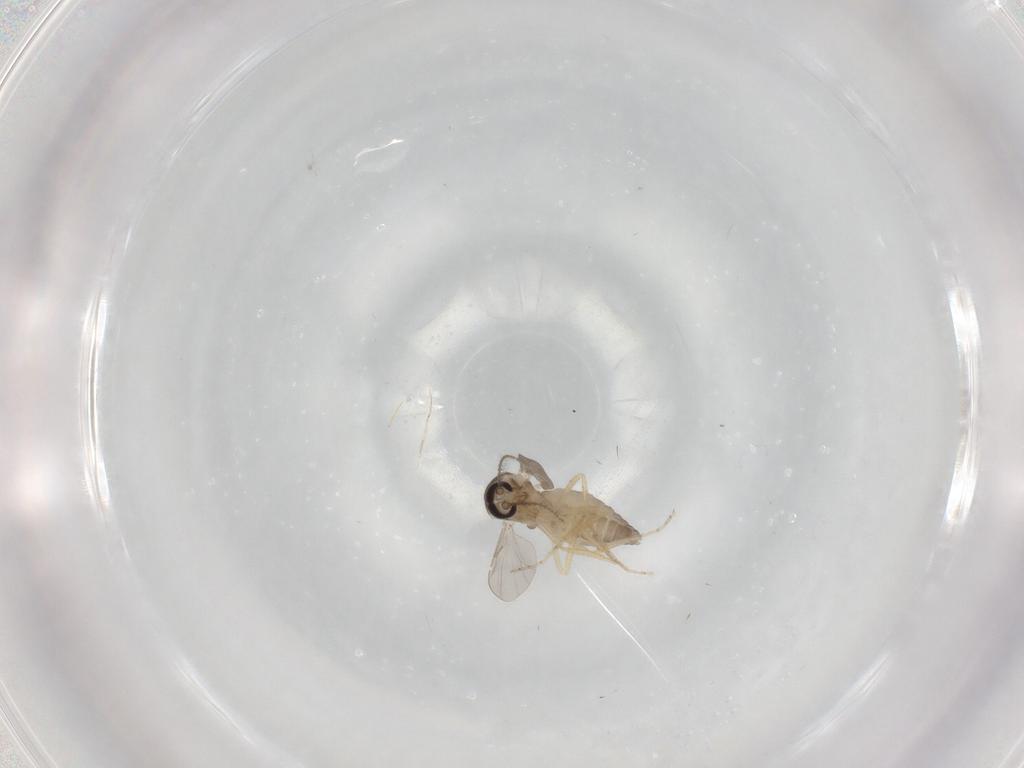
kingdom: Animalia
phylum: Arthropoda
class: Insecta
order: Diptera
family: Ceratopogonidae
